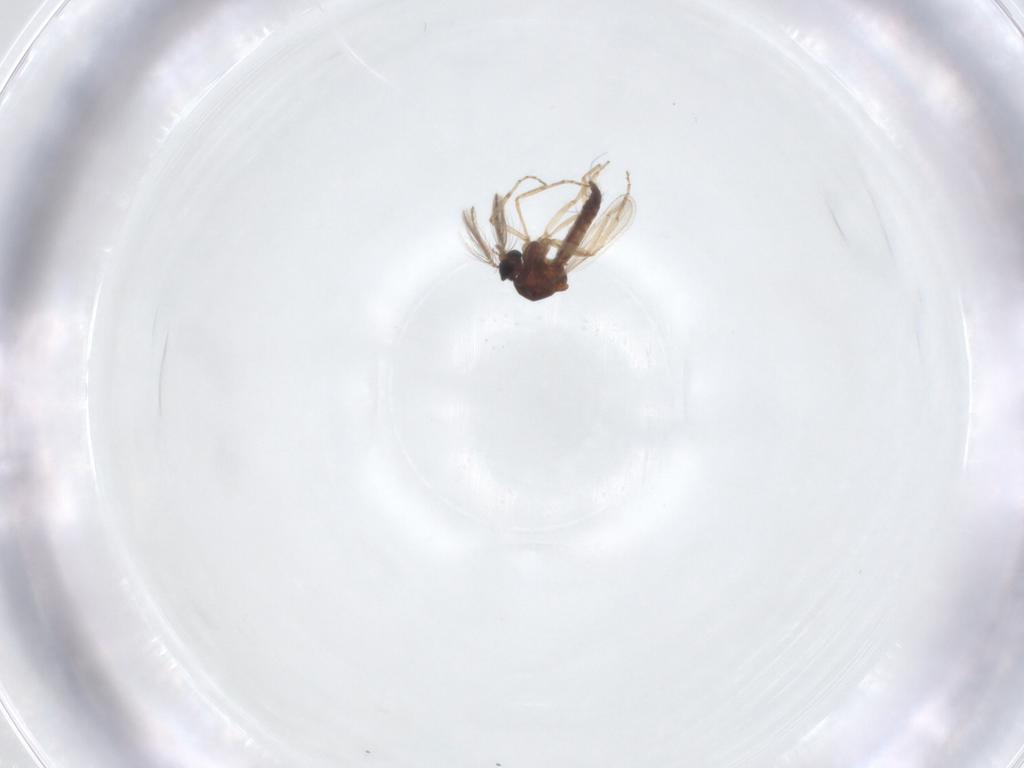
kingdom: Animalia
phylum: Arthropoda
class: Insecta
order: Diptera
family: Ceratopogonidae
